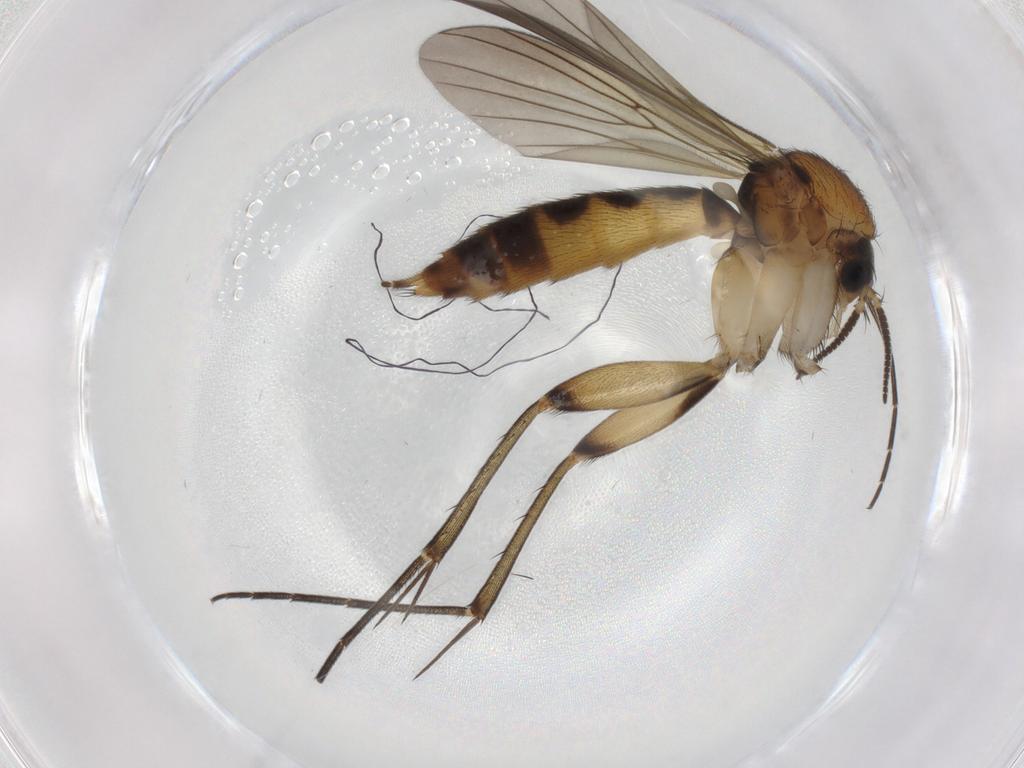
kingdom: Animalia
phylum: Arthropoda
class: Insecta
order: Diptera
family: Mycetophilidae
